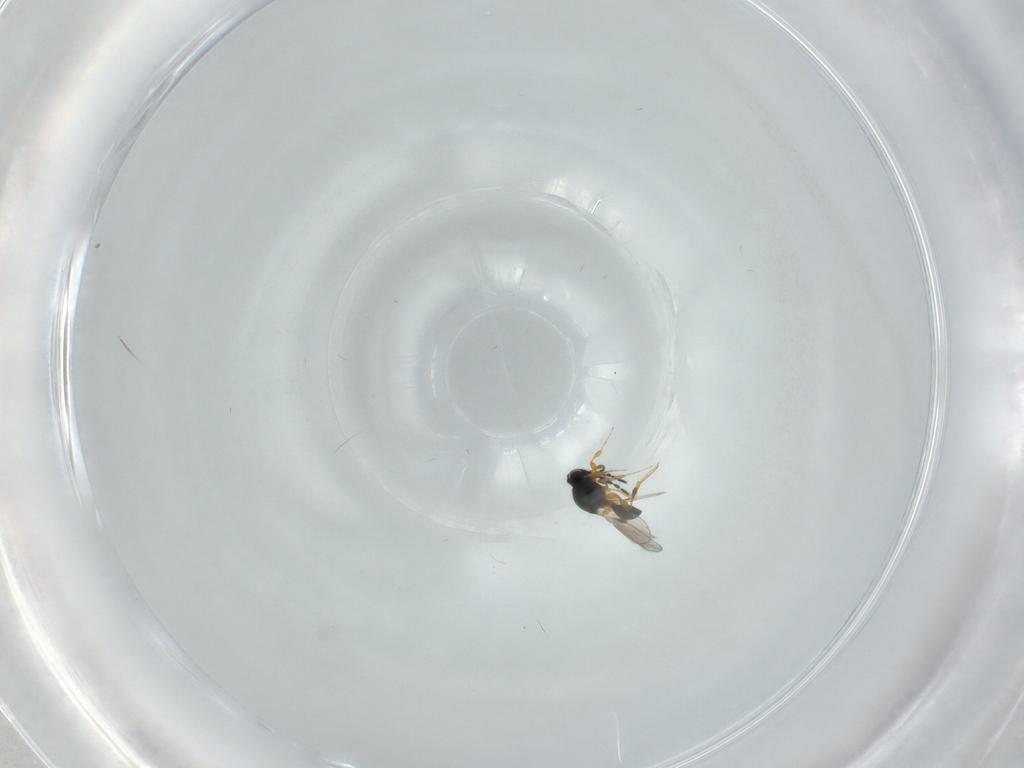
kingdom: Animalia
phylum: Arthropoda
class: Insecta
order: Hymenoptera
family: Platygastridae
